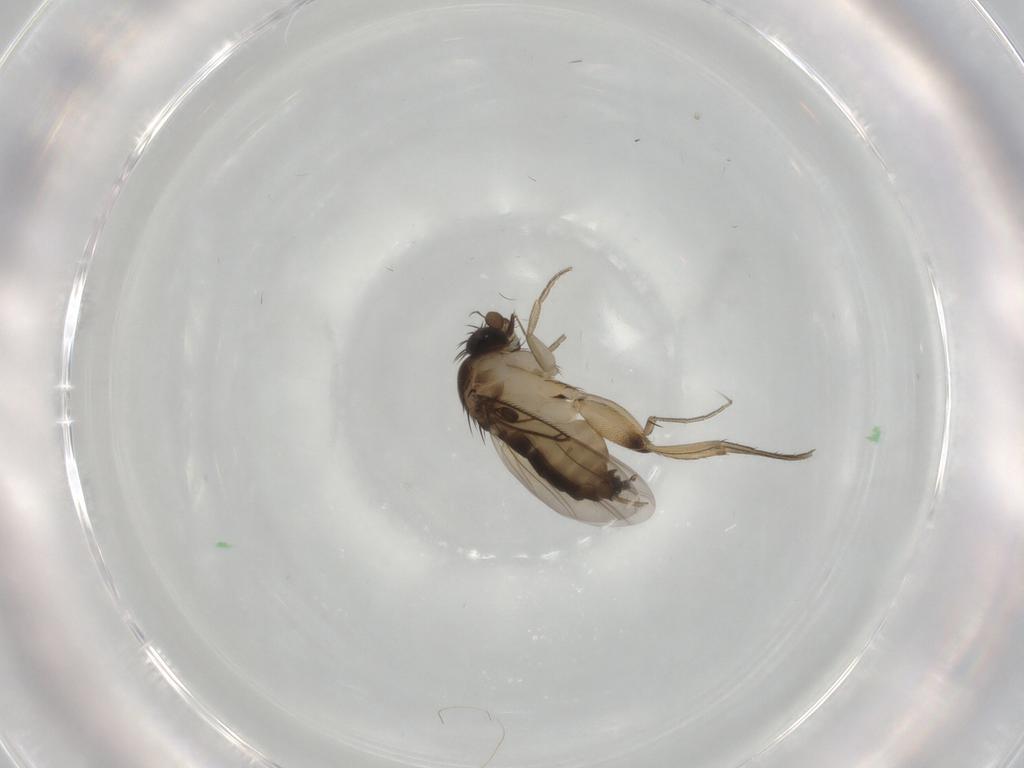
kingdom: Animalia
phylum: Arthropoda
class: Insecta
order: Diptera
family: Chironomidae
